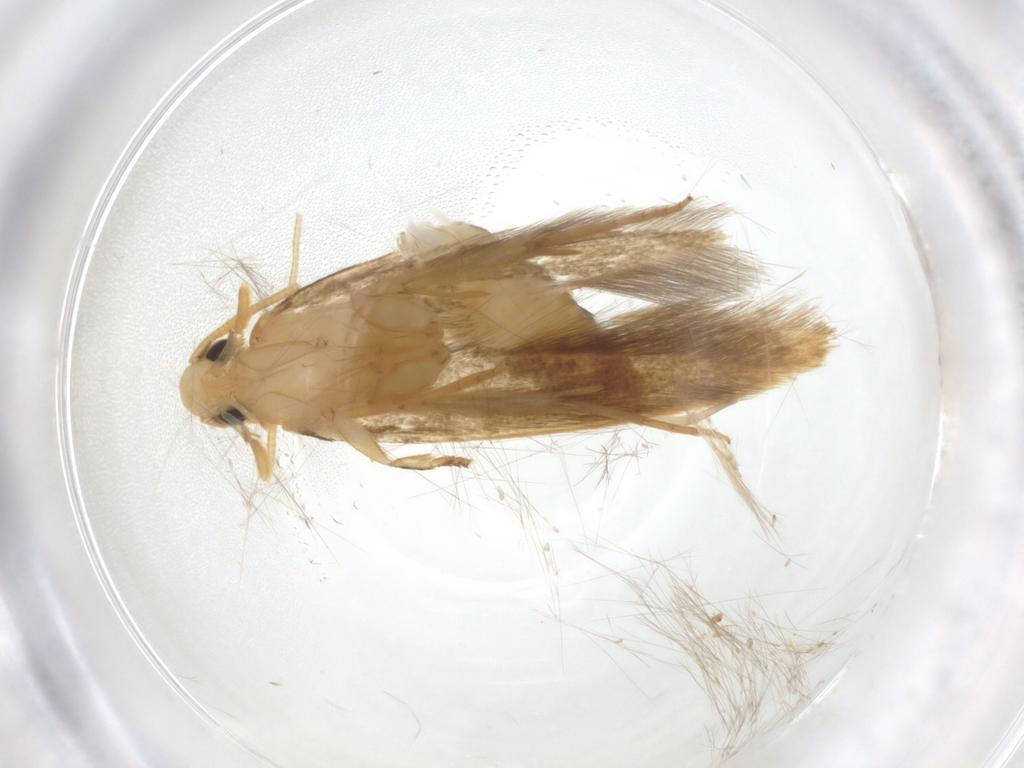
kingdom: Animalia
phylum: Arthropoda
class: Insecta
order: Lepidoptera
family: Tineidae
